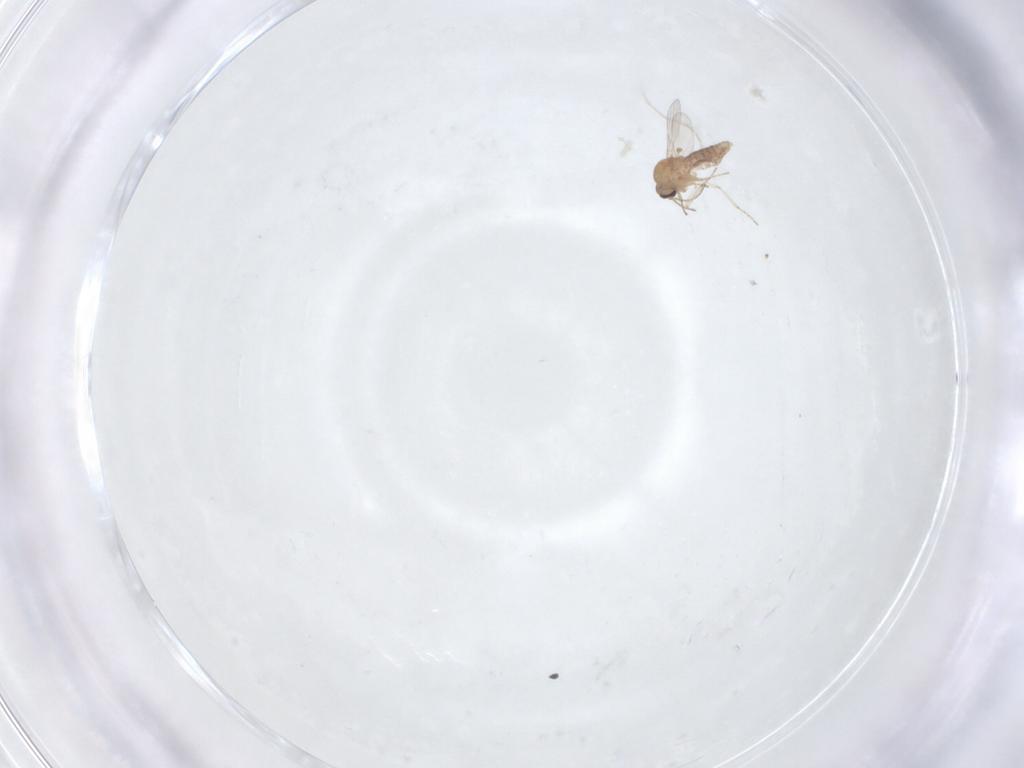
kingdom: Animalia
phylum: Arthropoda
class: Insecta
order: Diptera
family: Ceratopogonidae
